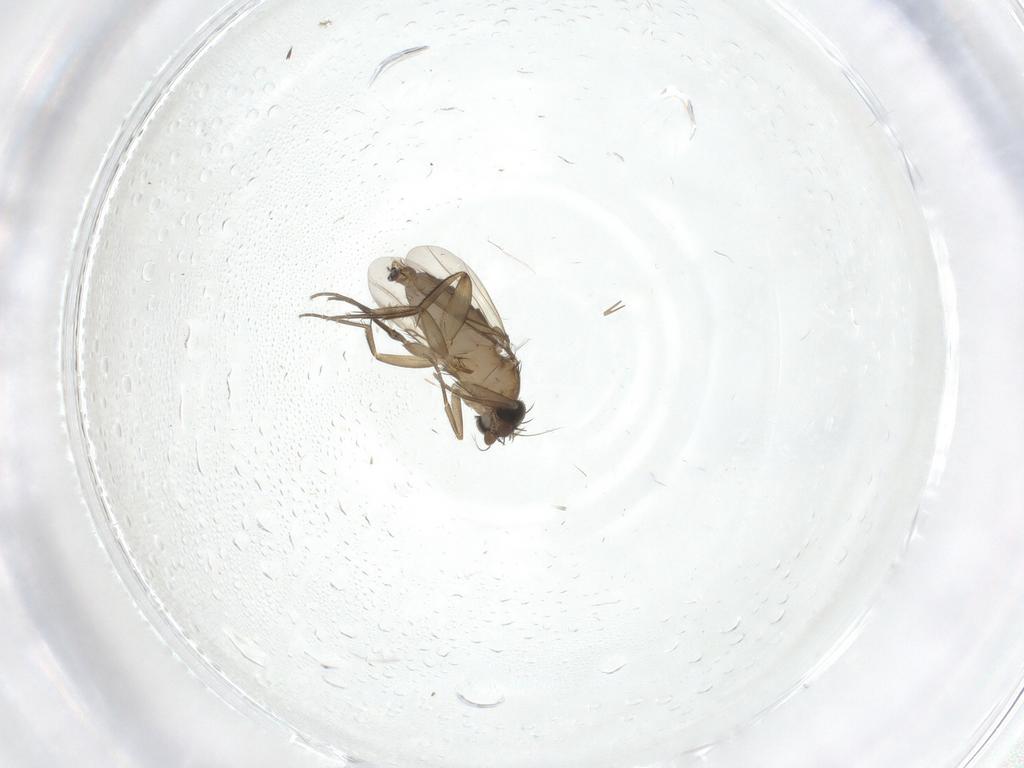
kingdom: Animalia
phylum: Arthropoda
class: Insecta
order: Diptera
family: Phoridae
